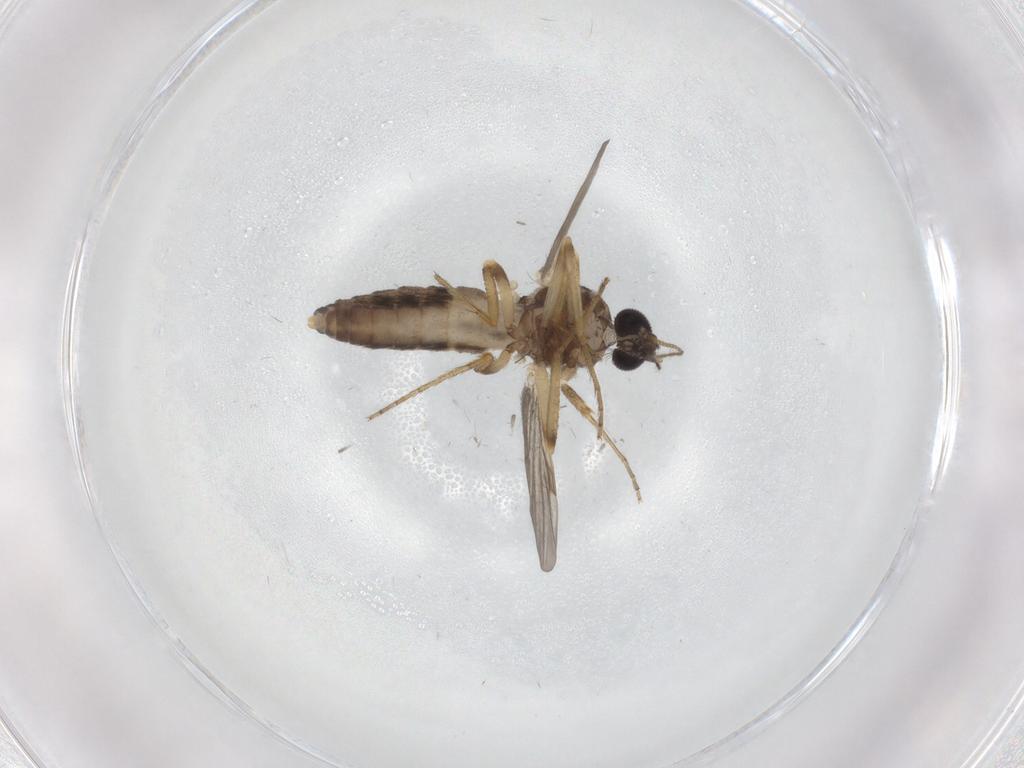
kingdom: Animalia
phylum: Arthropoda
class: Insecta
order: Diptera
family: Ceratopogonidae
